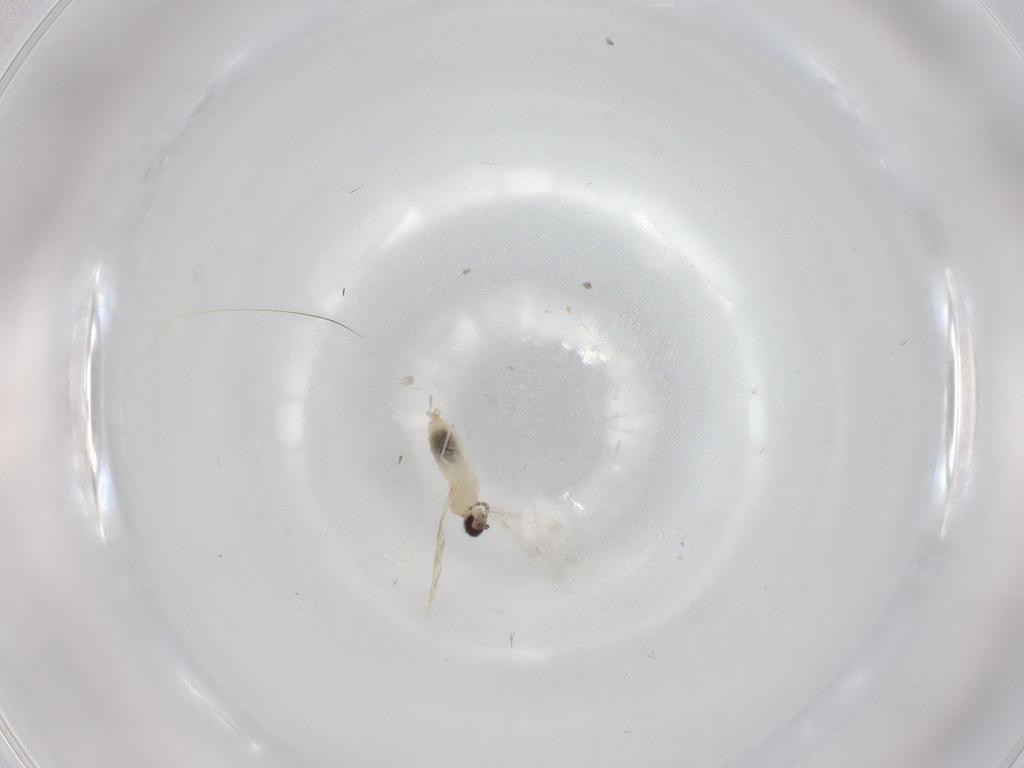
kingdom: Animalia
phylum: Arthropoda
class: Insecta
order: Diptera
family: Cecidomyiidae
